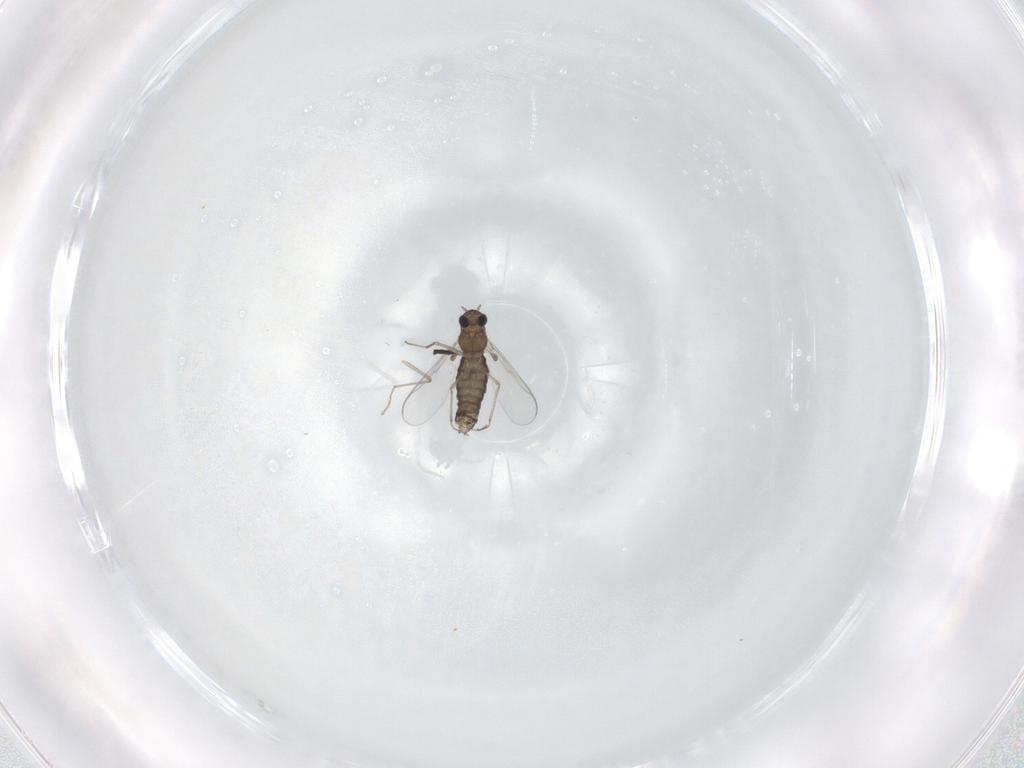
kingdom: Animalia
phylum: Arthropoda
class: Insecta
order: Diptera
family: Chironomidae
